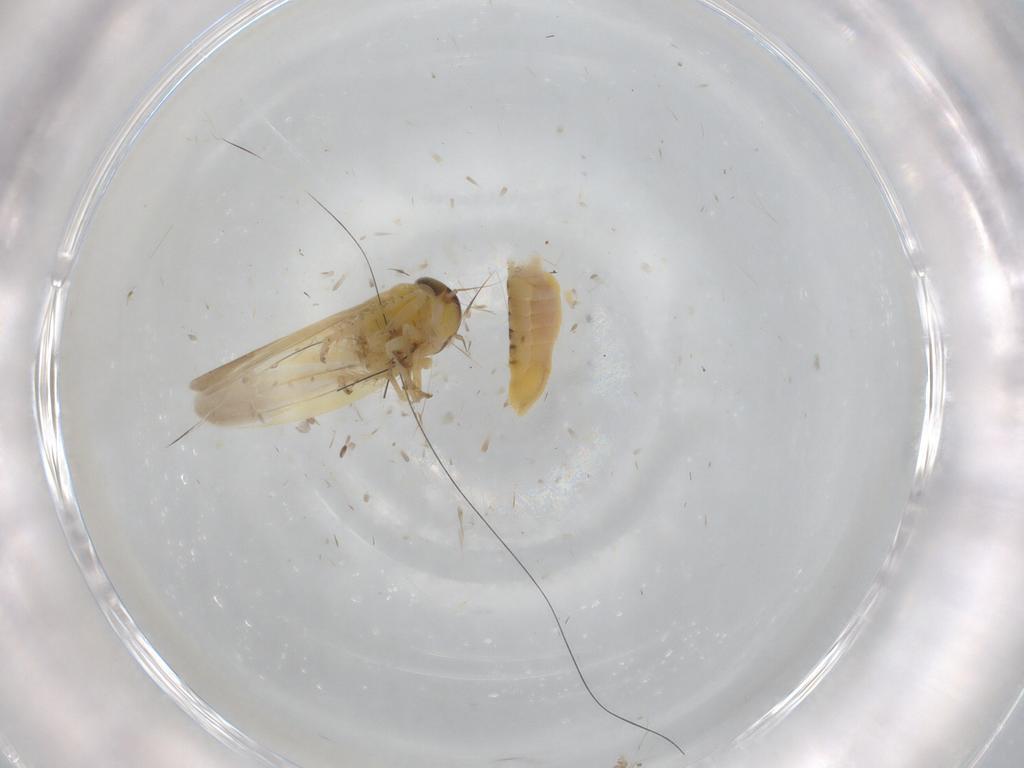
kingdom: Animalia
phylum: Arthropoda
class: Insecta
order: Hemiptera
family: Cicadellidae
